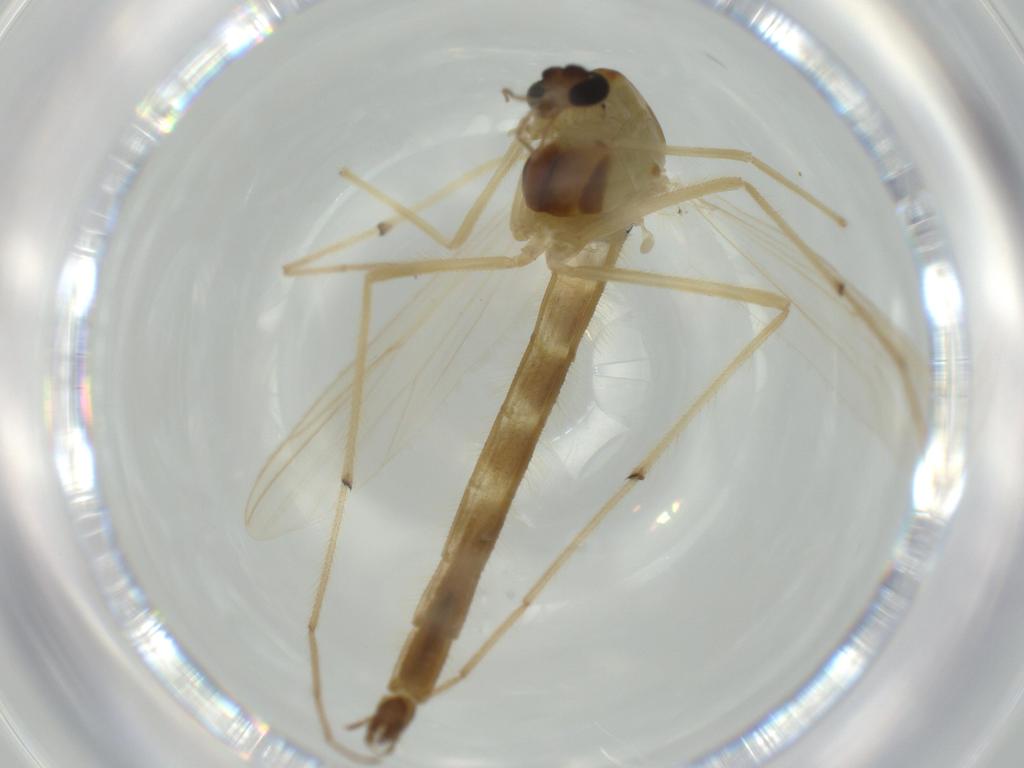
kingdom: Animalia
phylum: Arthropoda
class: Insecta
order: Diptera
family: Chironomidae
